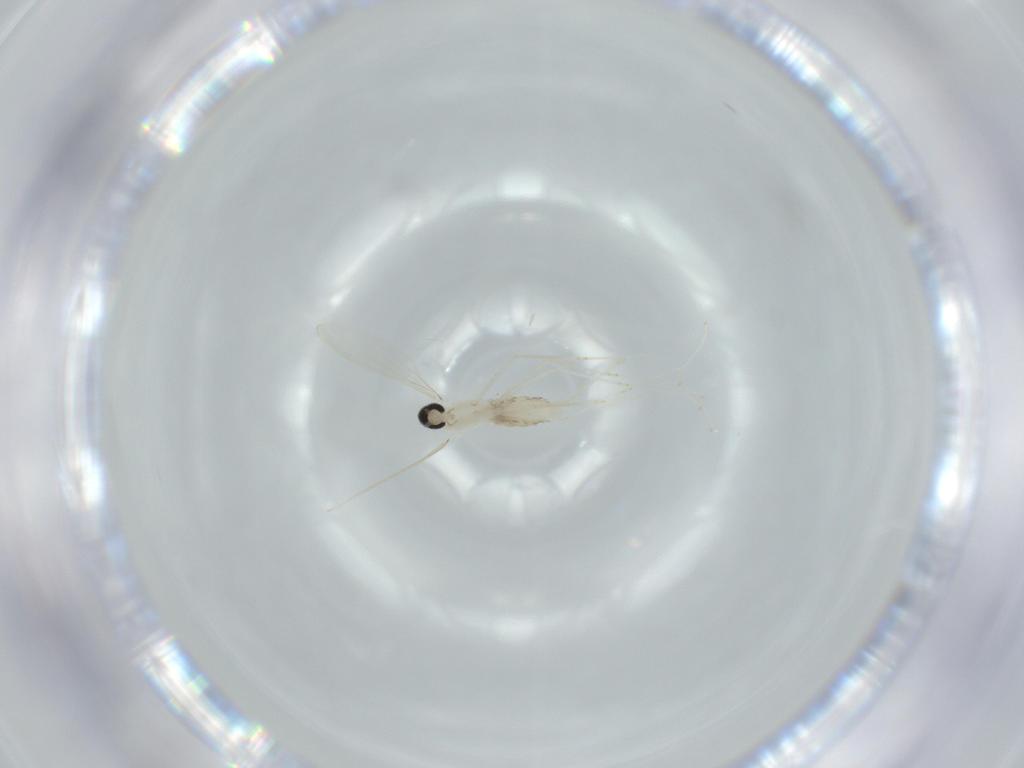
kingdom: Animalia
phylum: Arthropoda
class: Insecta
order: Diptera
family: Cecidomyiidae
